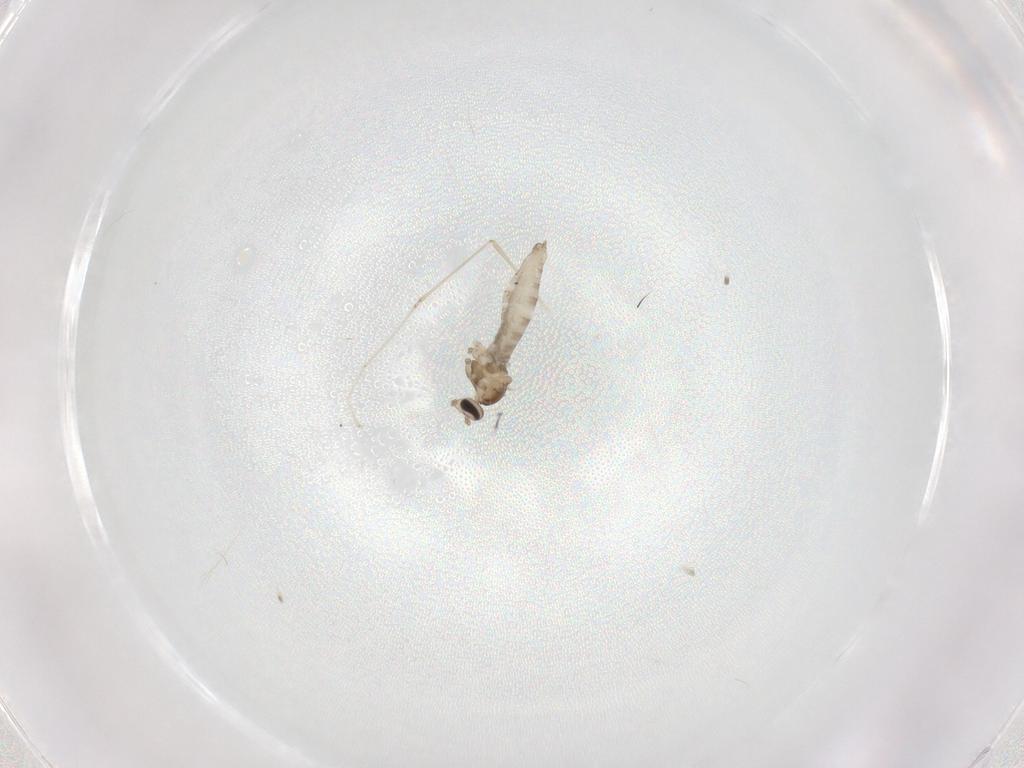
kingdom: Animalia
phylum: Arthropoda
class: Insecta
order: Diptera
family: Cecidomyiidae
